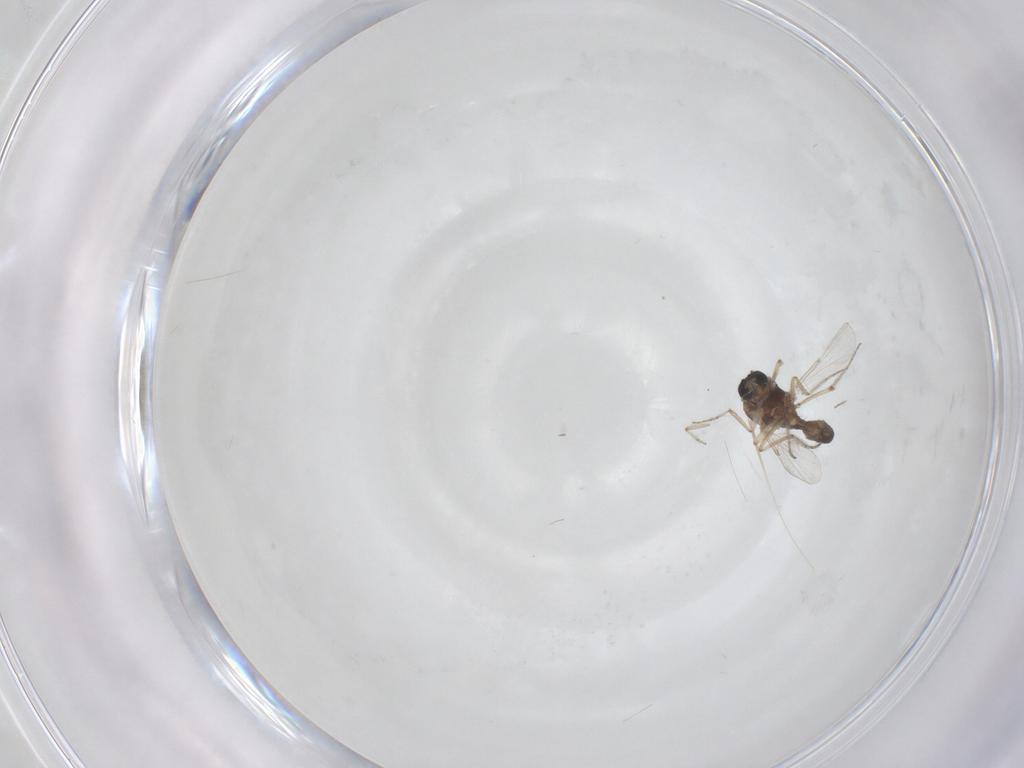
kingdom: Animalia
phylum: Arthropoda
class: Insecta
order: Diptera
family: Ceratopogonidae
